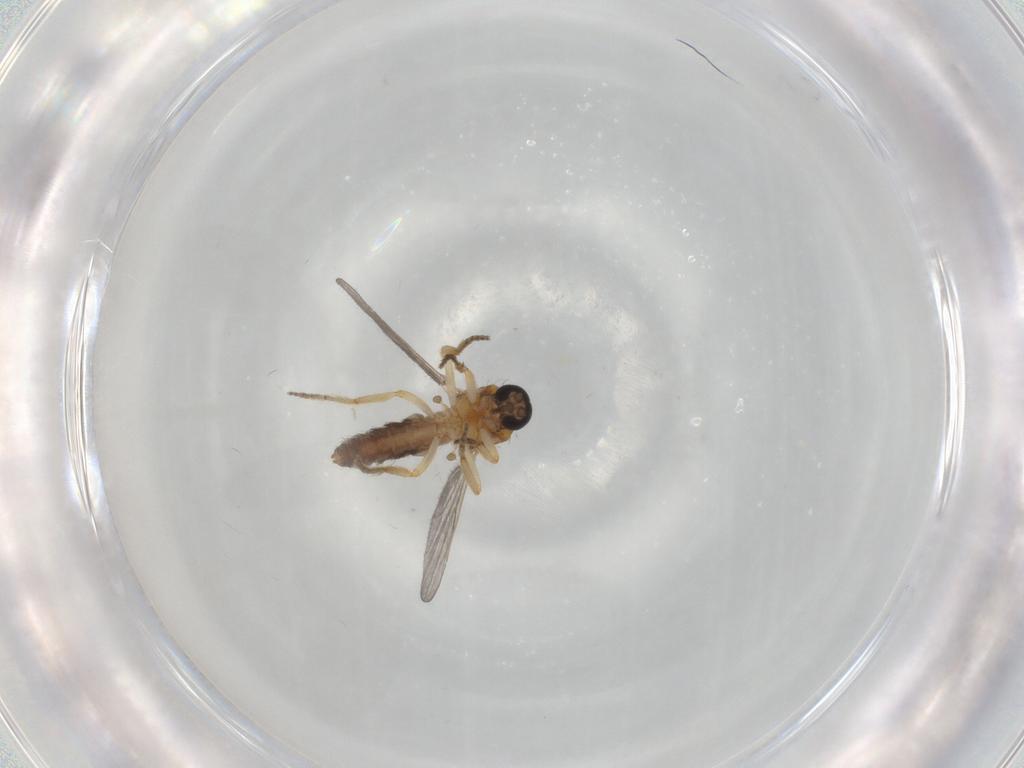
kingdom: Animalia
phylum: Arthropoda
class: Insecta
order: Diptera
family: Ceratopogonidae
